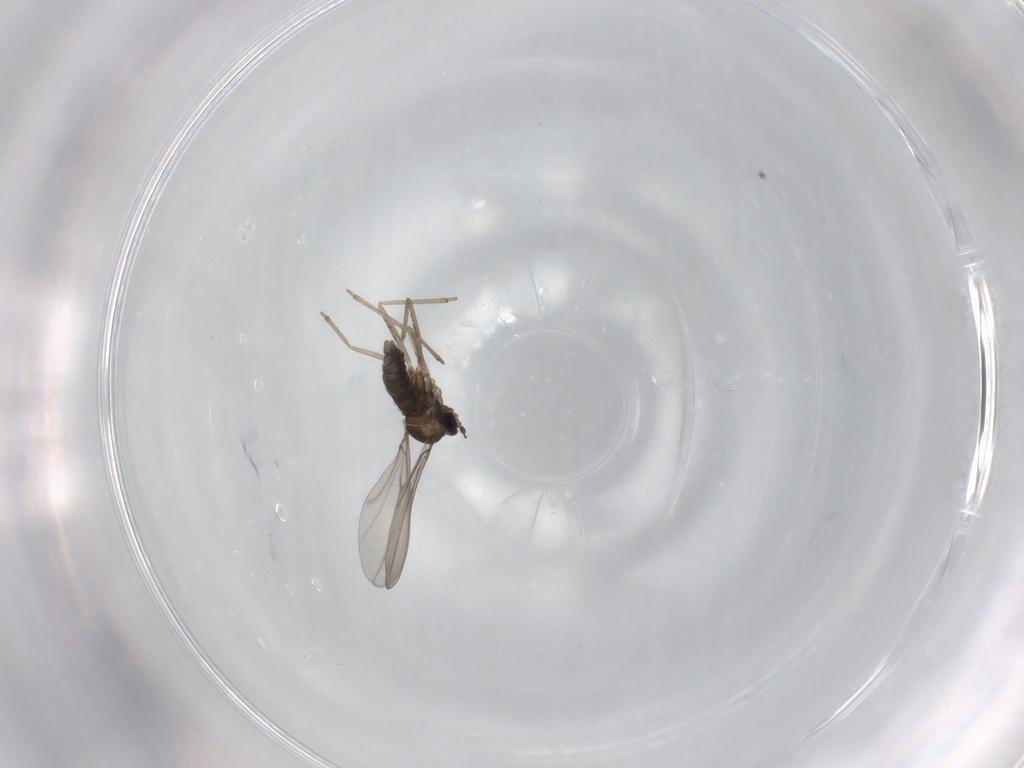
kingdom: Animalia
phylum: Arthropoda
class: Insecta
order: Diptera
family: Cecidomyiidae
